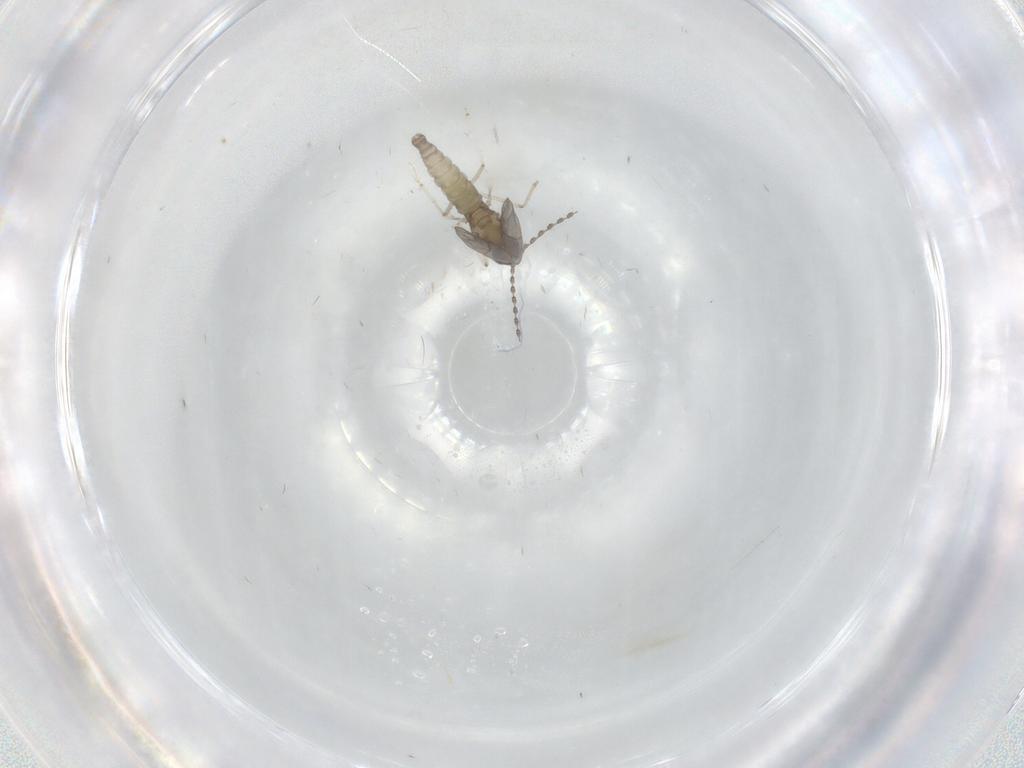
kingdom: Animalia
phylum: Arthropoda
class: Insecta
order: Diptera
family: Cecidomyiidae
